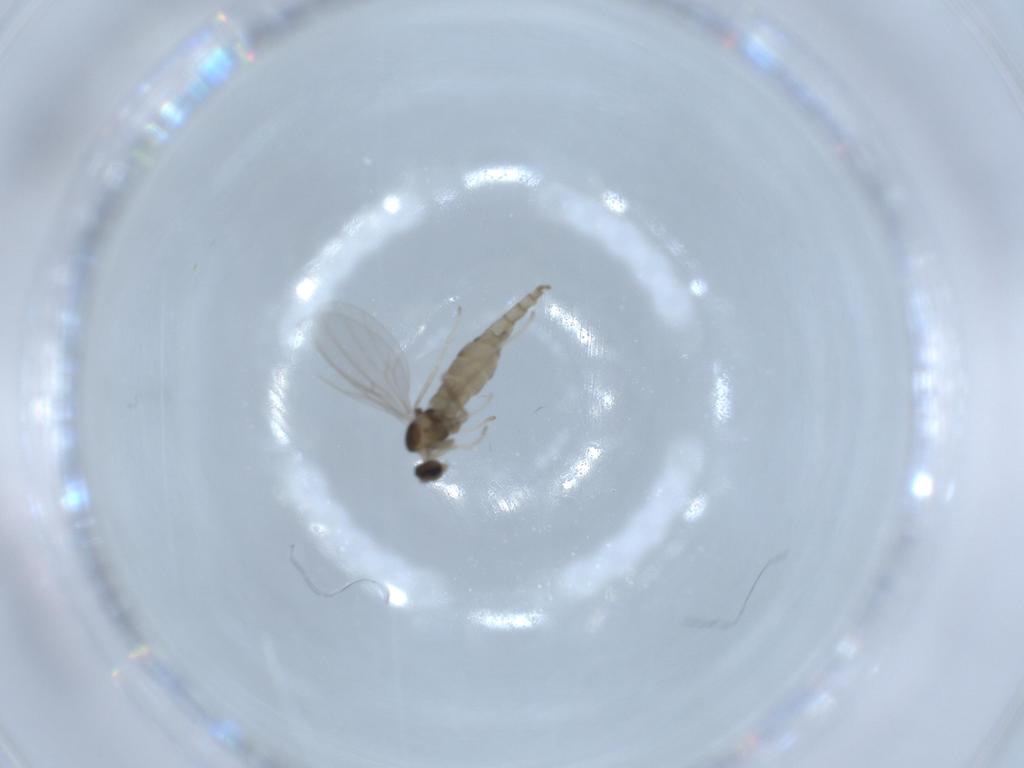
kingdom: Animalia
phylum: Arthropoda
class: Insecta
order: Diptera
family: Cecidomyiidae
